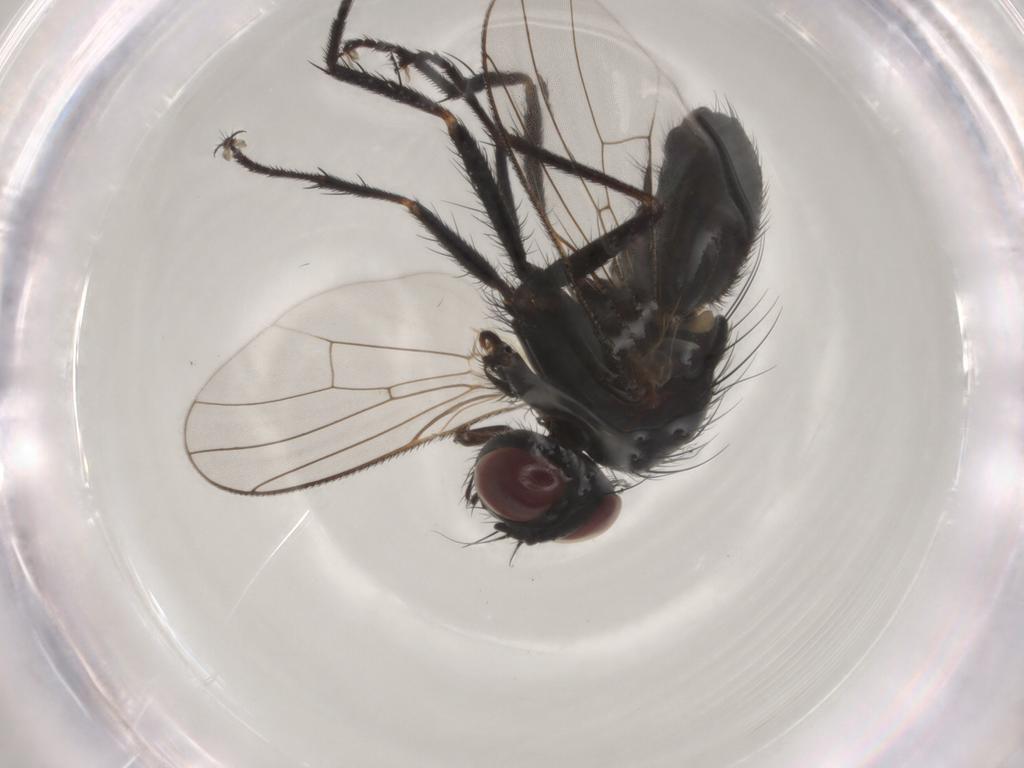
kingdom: Animalia
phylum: Arthropoda
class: Insecta
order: Diptera
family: Muscidae
